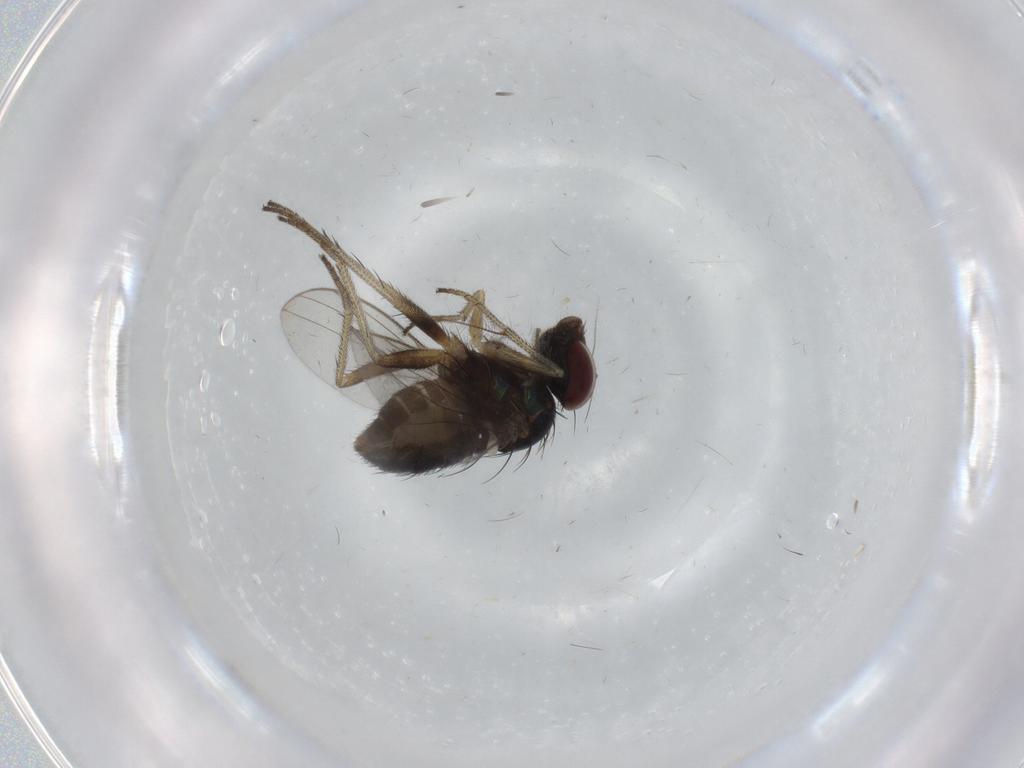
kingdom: Animalia
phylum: Arthropoda
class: Insecta
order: Diptera
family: Dolichopodidae
